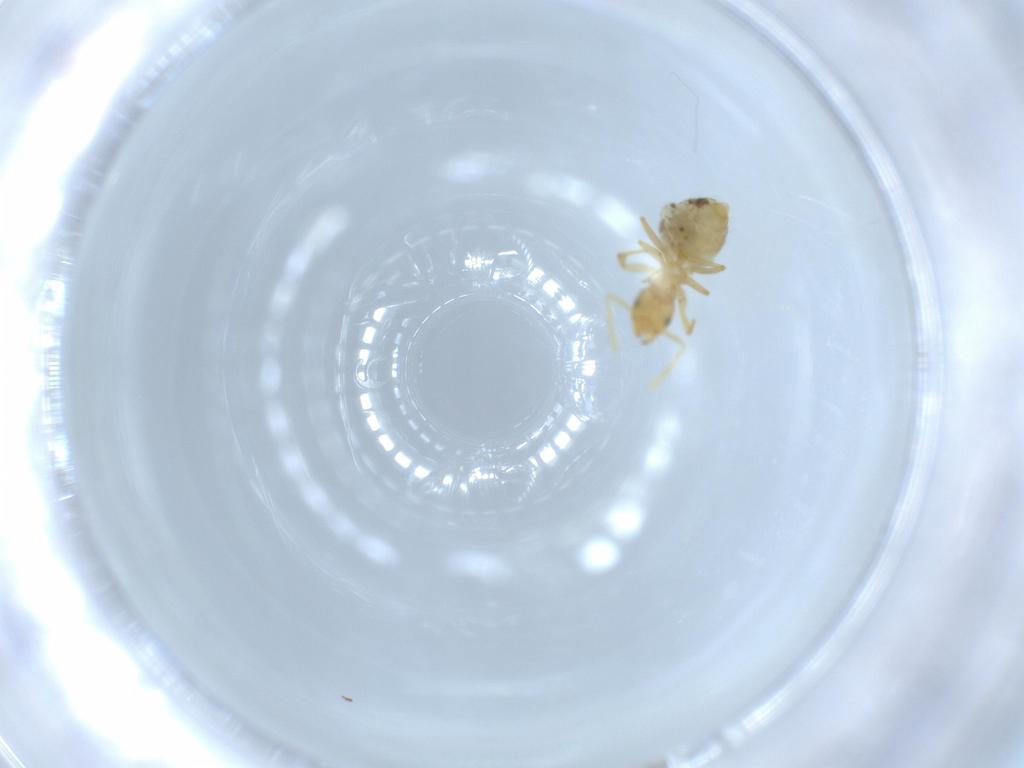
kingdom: Animalia
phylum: Arthropoda
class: Insecta
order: Hymenoptera
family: Formicidae
